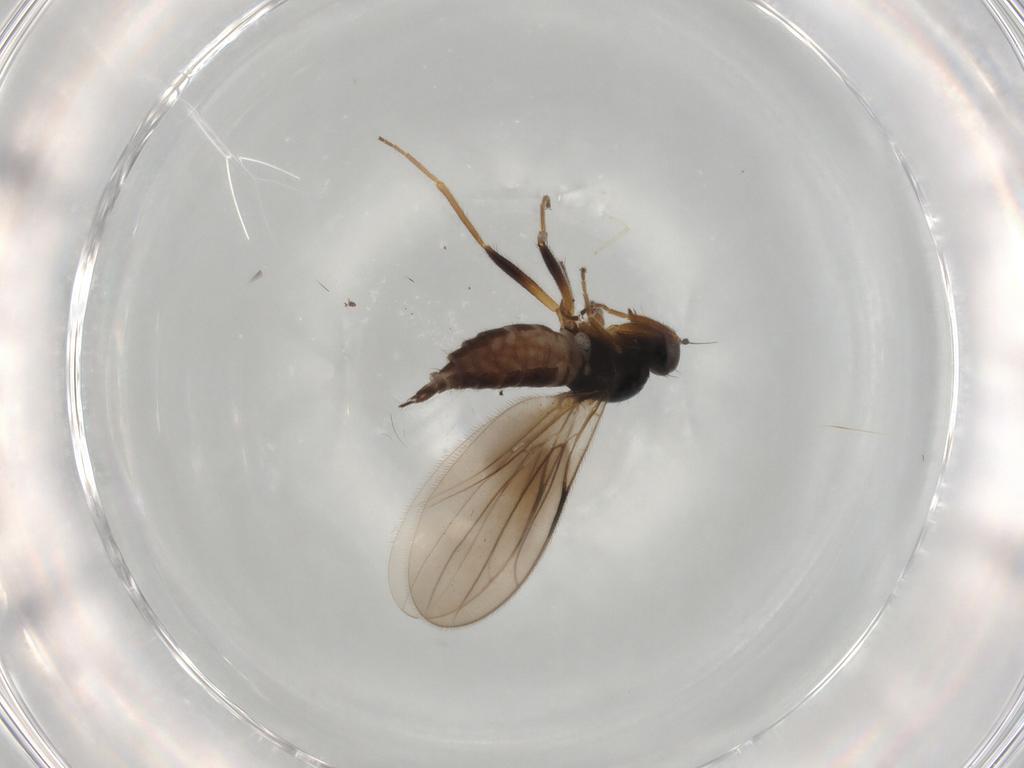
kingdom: Animalia
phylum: Arthropoda
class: Insecta
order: Diptera
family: Hybotidae
